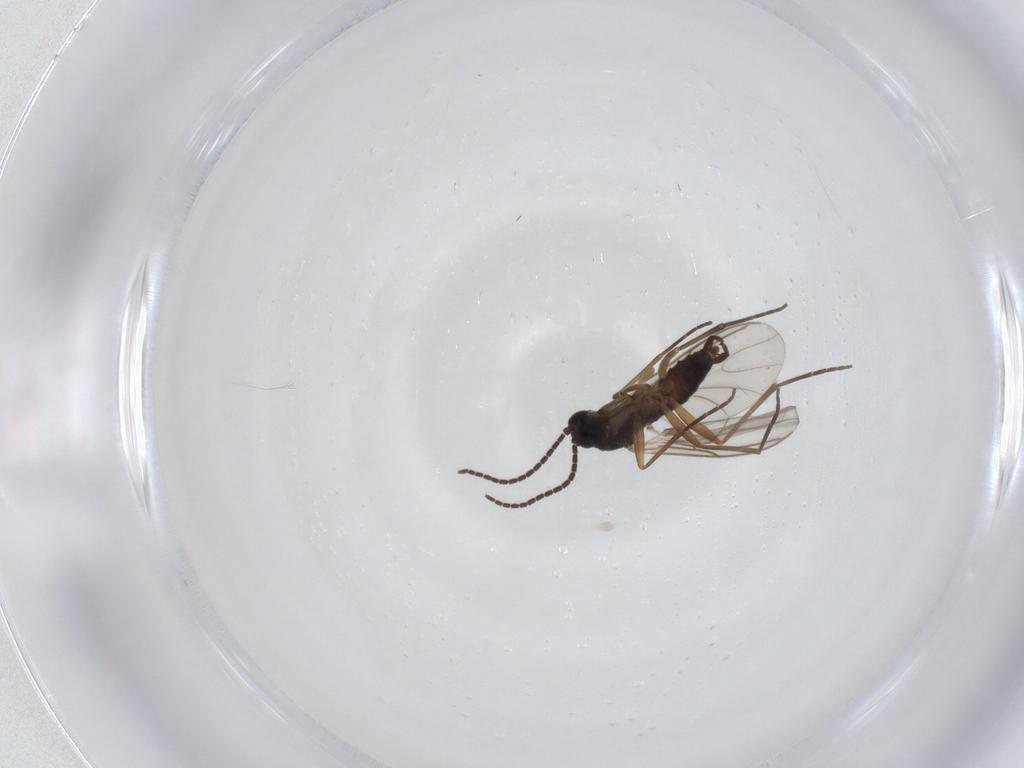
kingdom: Animalia
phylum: Arthropoda
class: Insecta
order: Diptera
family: Sciaridae
